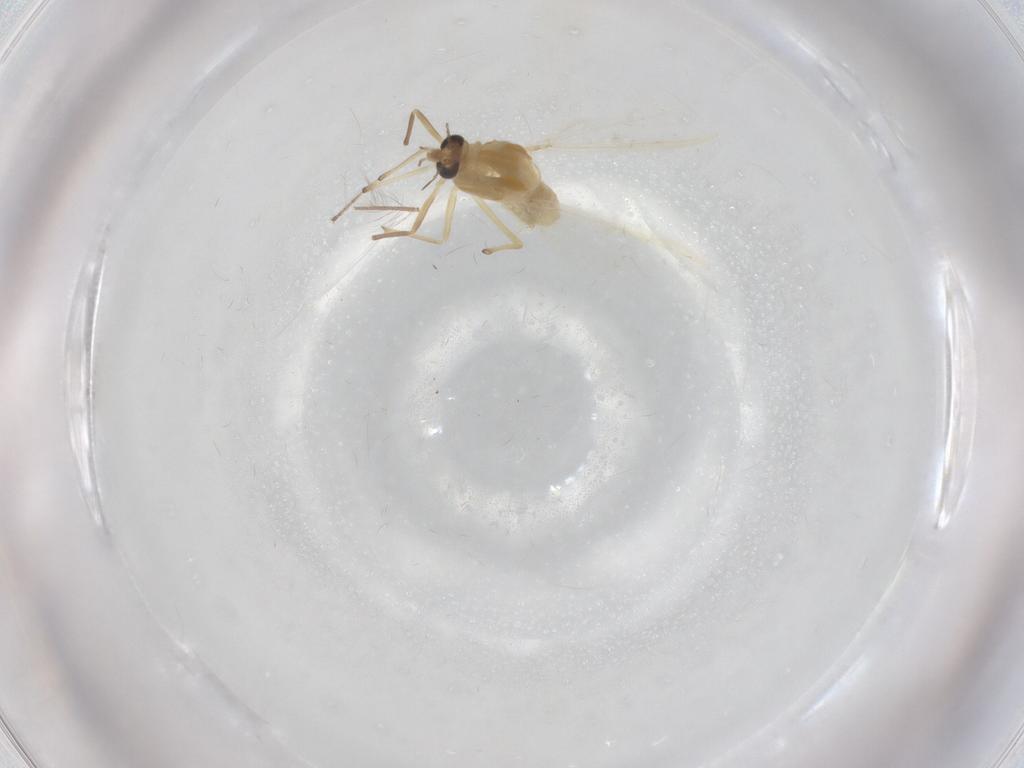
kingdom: Animalia
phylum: Arthropoda
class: Insecta
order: Diptera
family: Chironomidae
